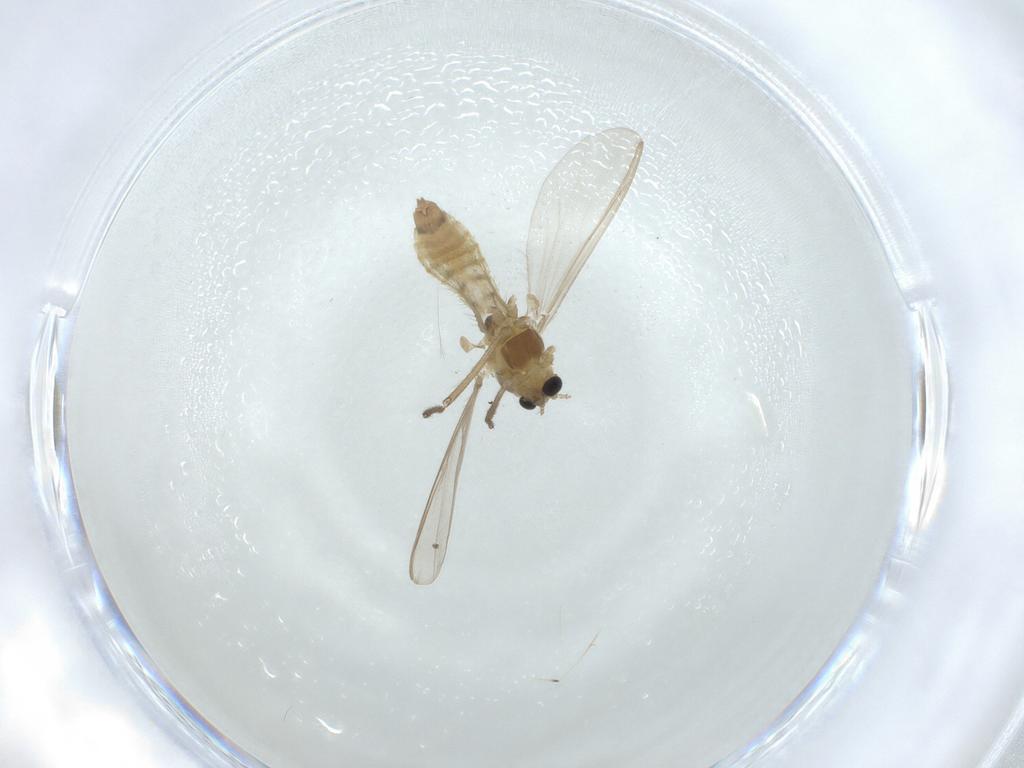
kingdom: Animalia
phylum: Arthropoda
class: Insecta
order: Diptera
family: Chironomidae
